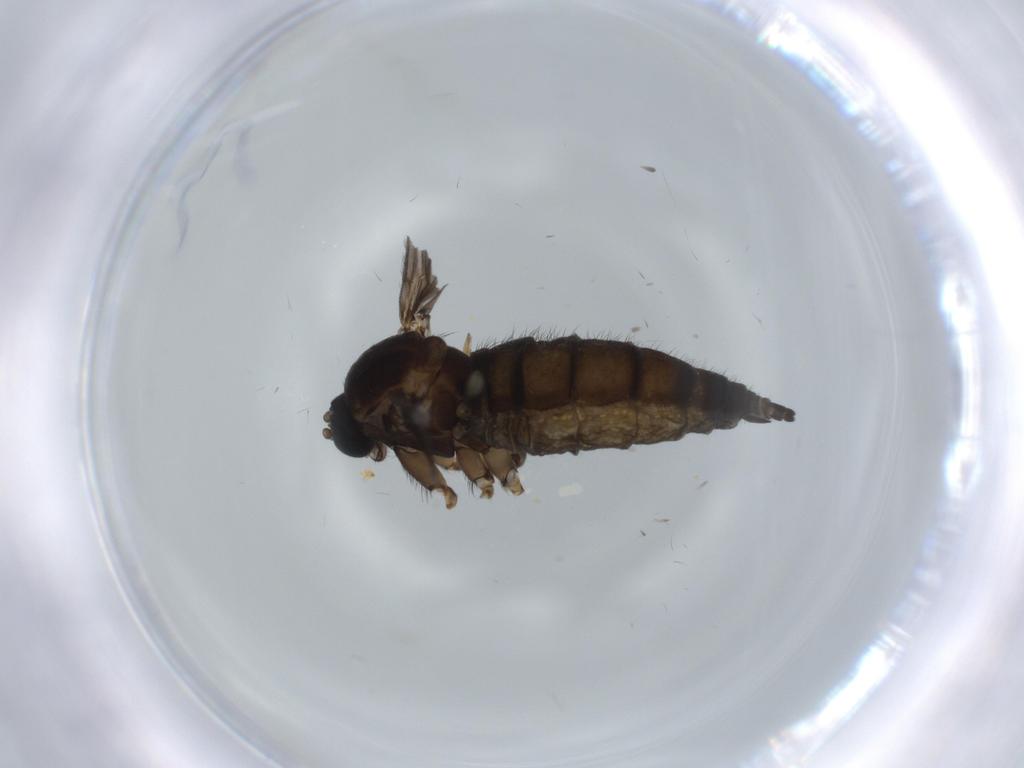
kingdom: Animalia
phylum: Arthropoda
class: Insecta
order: Diptera
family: Sciaridae
